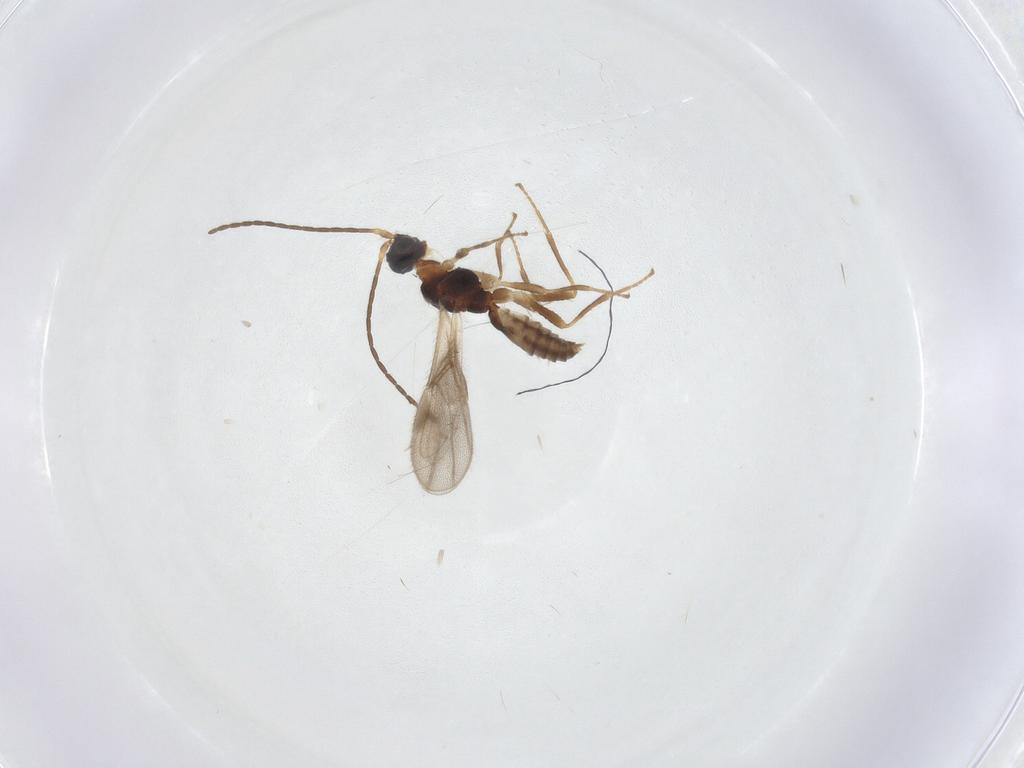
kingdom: Animalia
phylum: Arthropoda
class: Insecta
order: Hymenoptera
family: Braconidae
